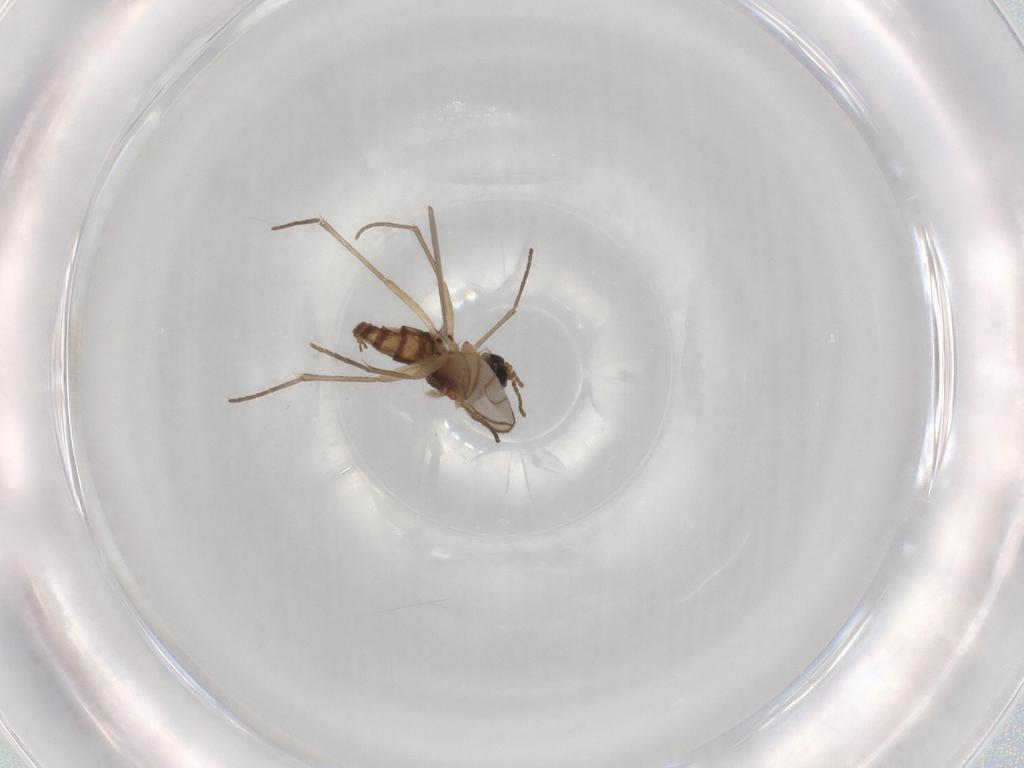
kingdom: Animalia
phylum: Arthropoda
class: Insecta
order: Diptera
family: Sciaridae
